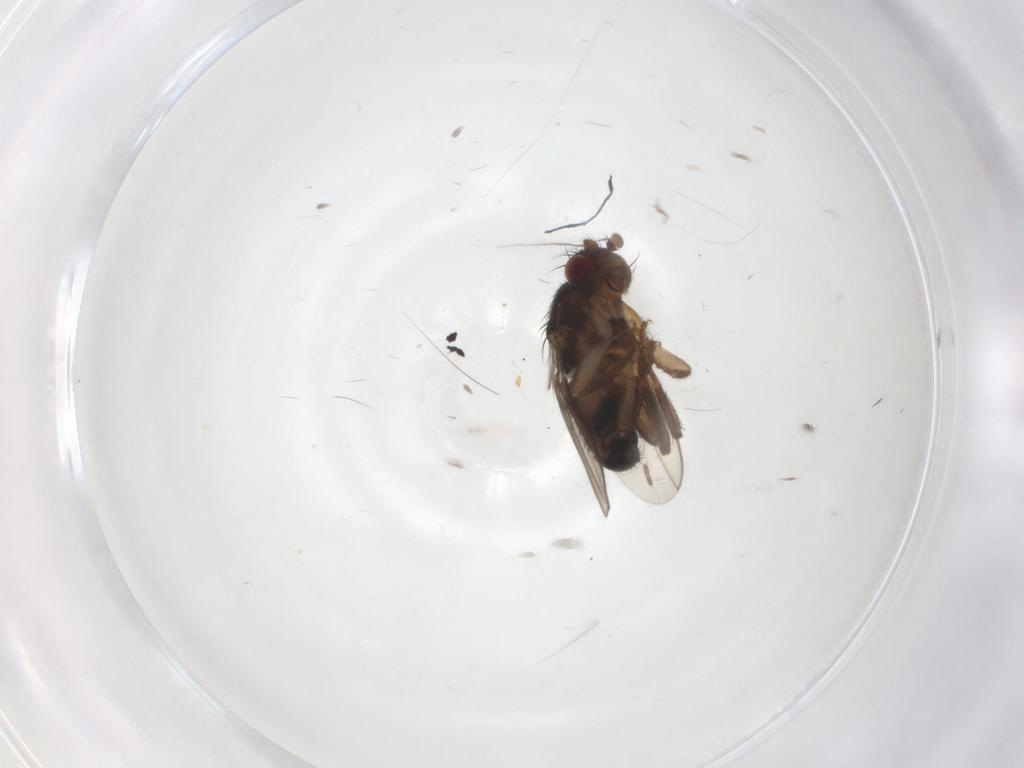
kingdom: Animalia
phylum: Arthropoda
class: Insecta
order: Diptera
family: Sphaeroceridae
